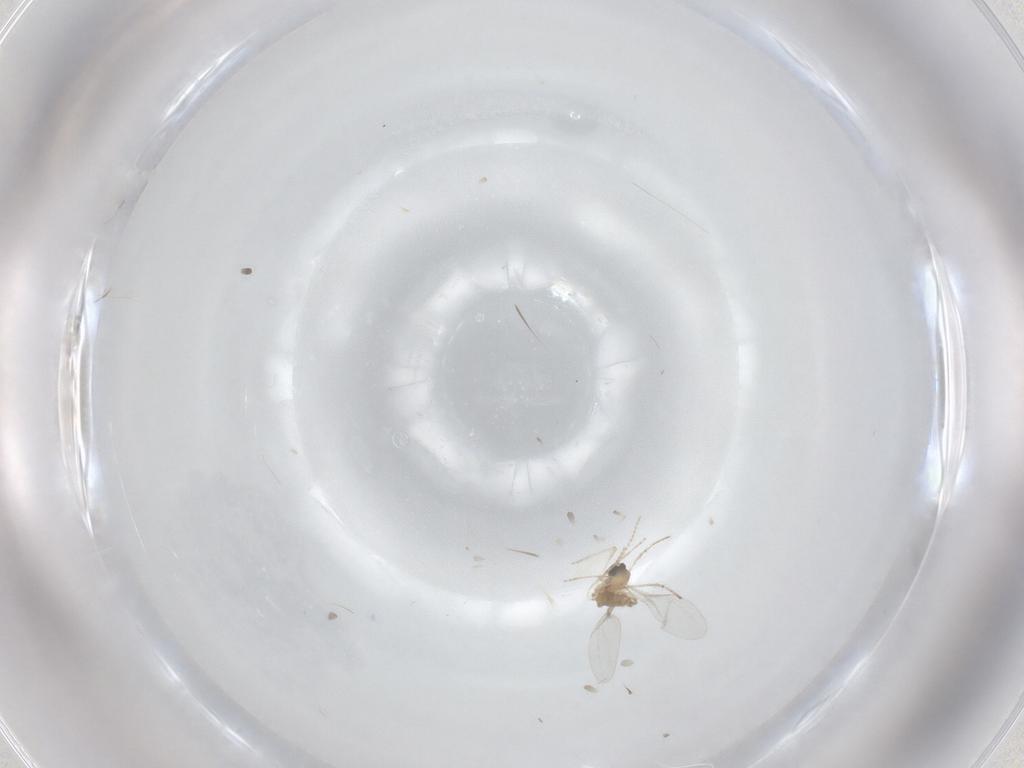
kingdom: Animalia
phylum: Arthropoda
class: Insecta
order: Diptera
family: Cecidomyiidae
